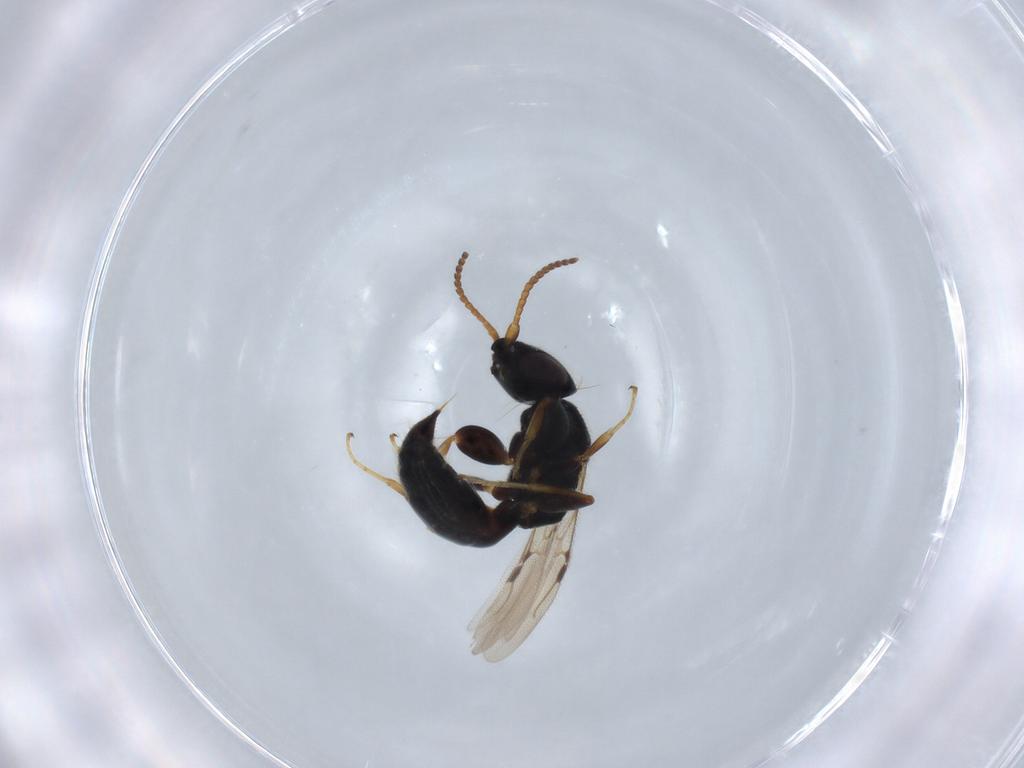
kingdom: Animalia
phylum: Arthropoda
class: Insecta
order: Hymenoptera
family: Bethylidae
